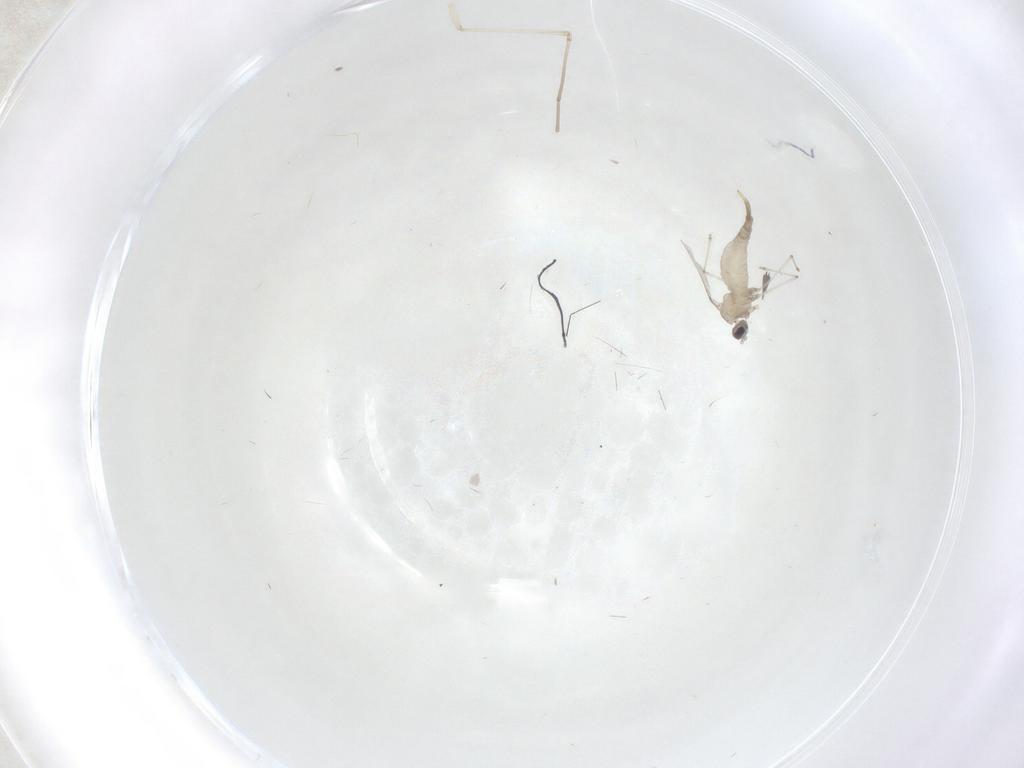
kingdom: Animalia
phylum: Arthropoda
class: Insecta
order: Diptera
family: Cecidomyiidae
